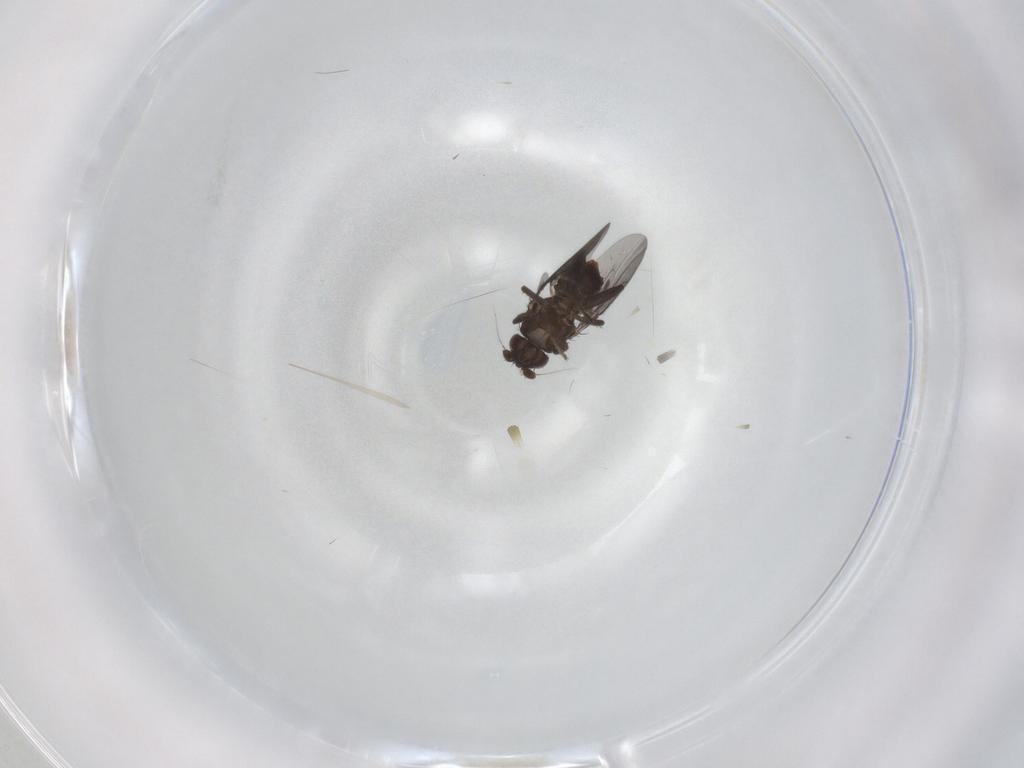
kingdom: Animalia
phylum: Arthropoda
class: Insecta
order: Diptera
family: Sphaeroceridae
